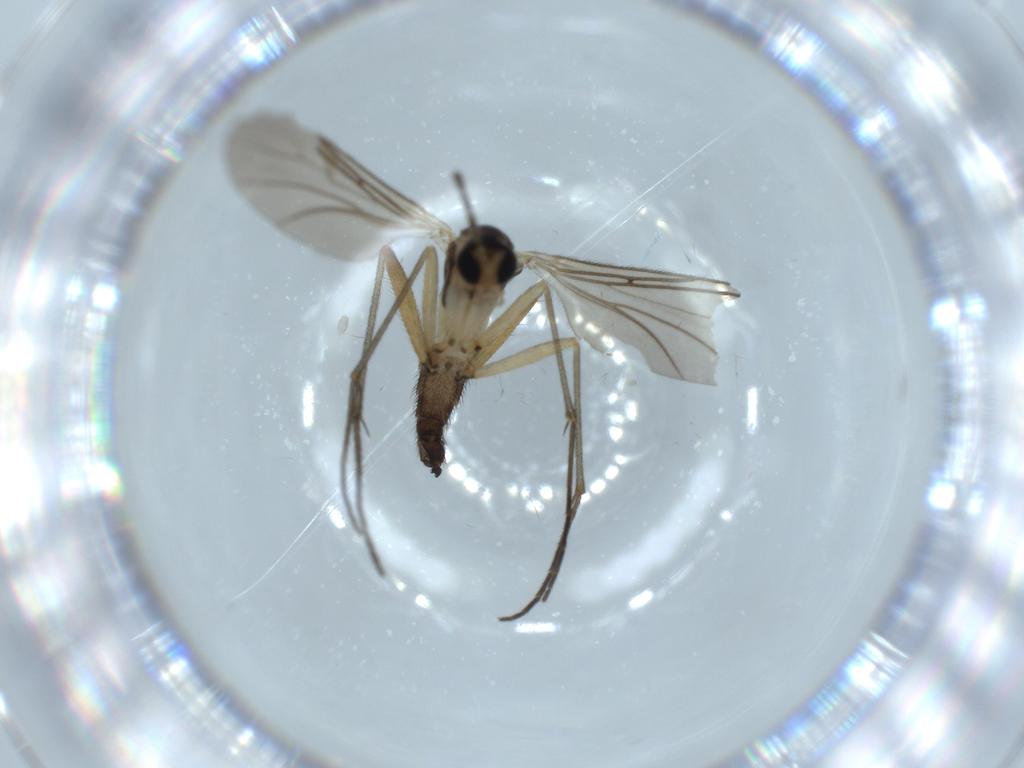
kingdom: Animalia
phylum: Arthropoda
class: Insecta
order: Diptera
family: Sciaridae
